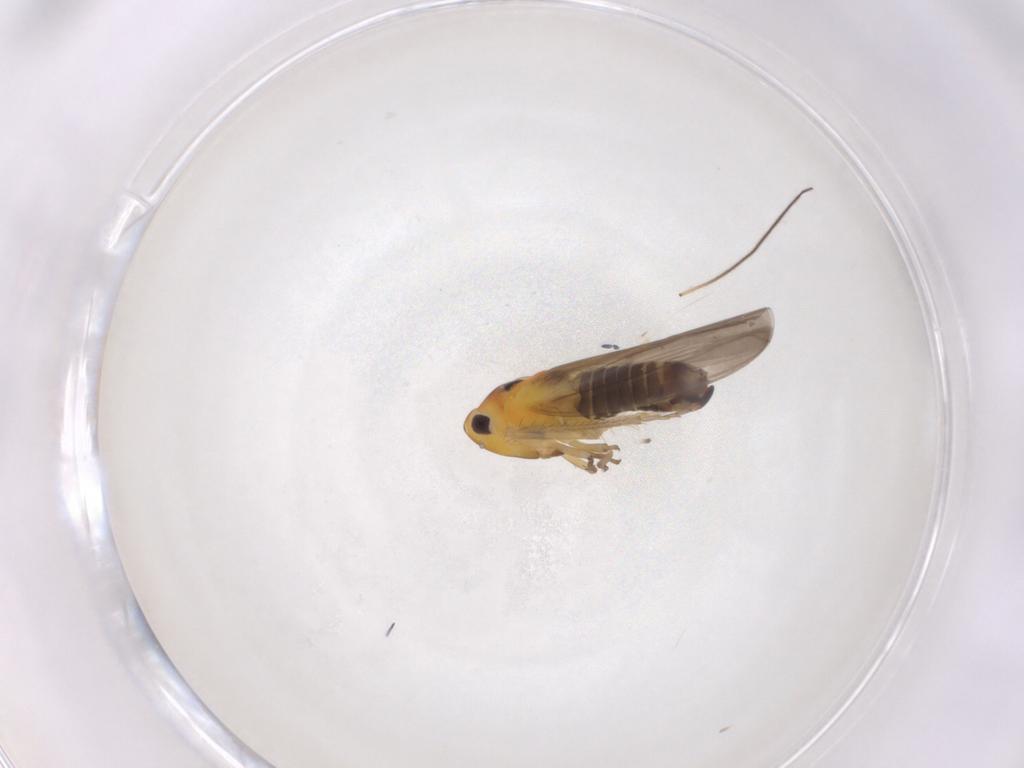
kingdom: Animalia
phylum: Arthropoda
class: Insecta
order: Hemiptera
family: Cicadellidae
